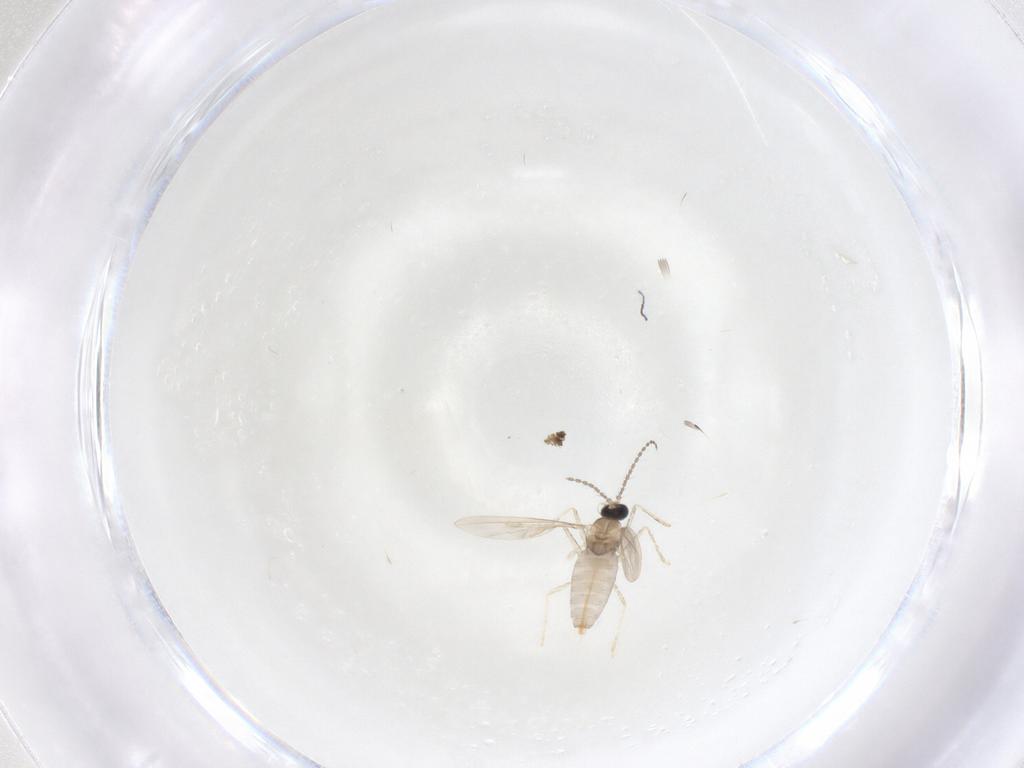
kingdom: Animalia
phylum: Arthropoda
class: Insecta
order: Diptera
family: Cecidomyiidae
